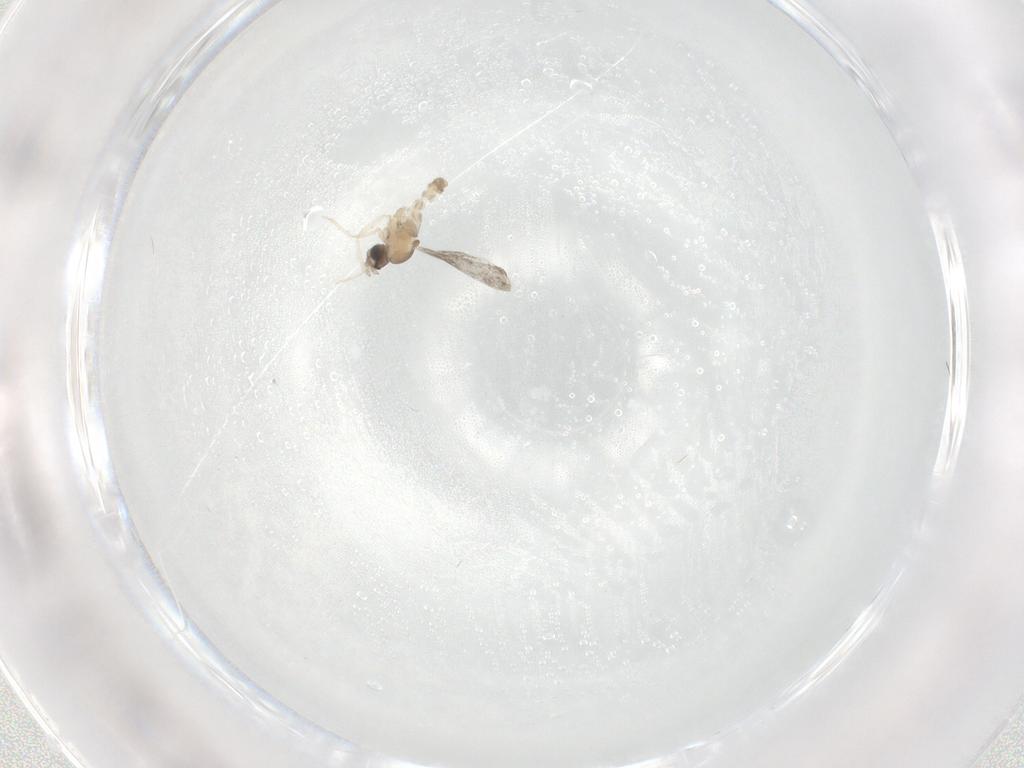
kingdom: Animalia
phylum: Arthropoda
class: Insecta
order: Diptera
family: Cecidomyiidae
